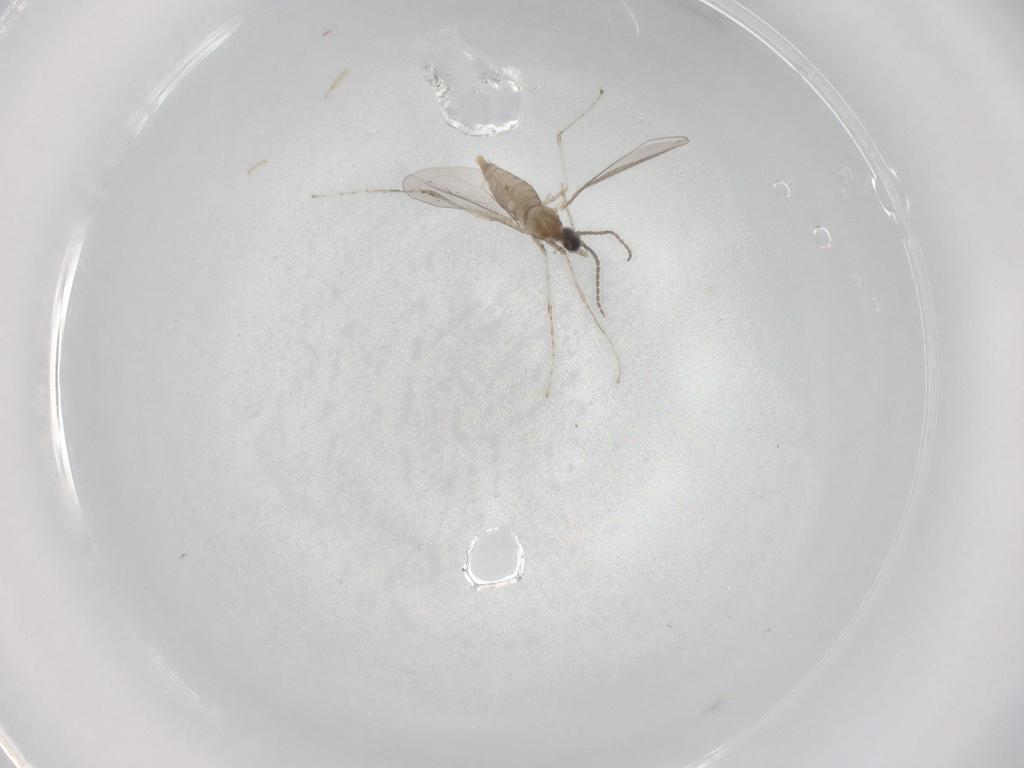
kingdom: Animalia
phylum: Arthropoda
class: Insecta
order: Diptera
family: Cecidomyiidae
